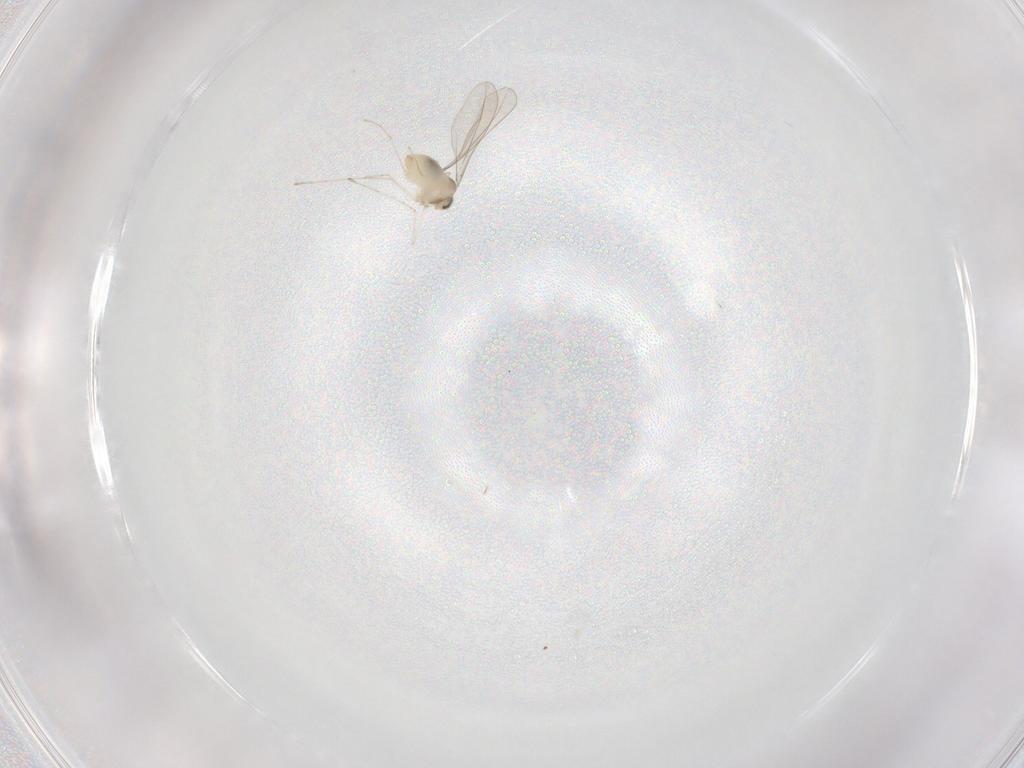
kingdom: Animalia
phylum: Arthropoda
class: Insecta
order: Diptera
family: Cecidomyiidae
